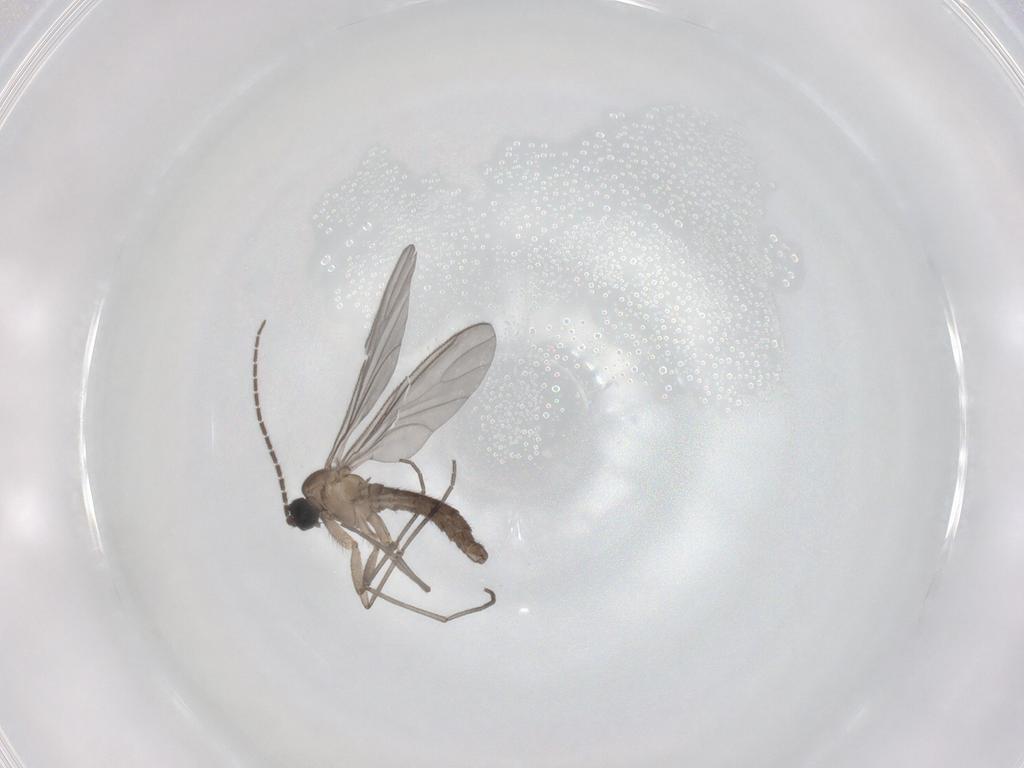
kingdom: Animalia
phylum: Arthropoda
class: Insecta
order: Diptera
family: Sciaridae
